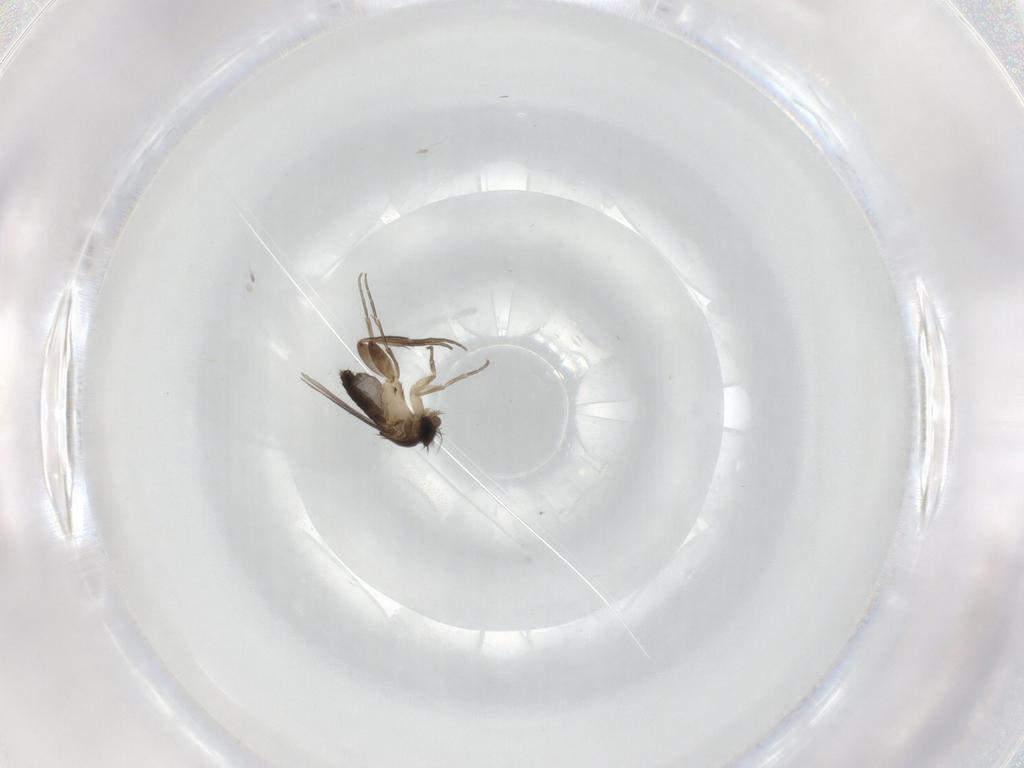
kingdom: Animalia
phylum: Arthropoda
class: Insecta
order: Diptera
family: Phoridae
